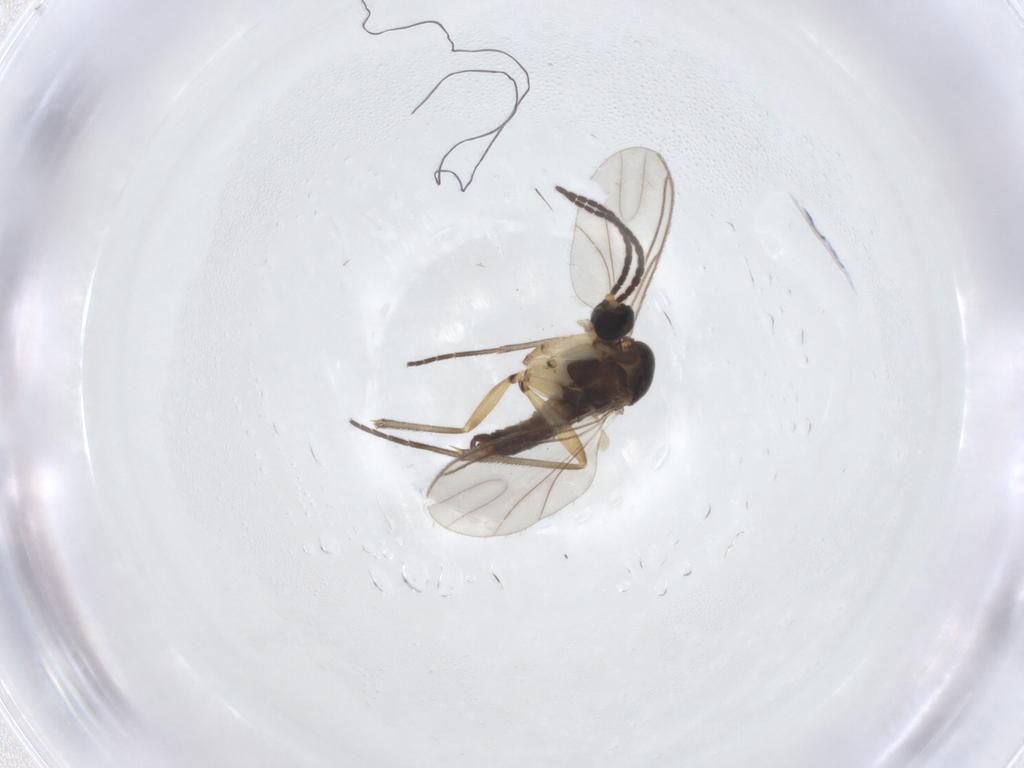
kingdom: Animalia
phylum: Arthropoda
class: Insecta
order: Diptera
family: Sciaridae
